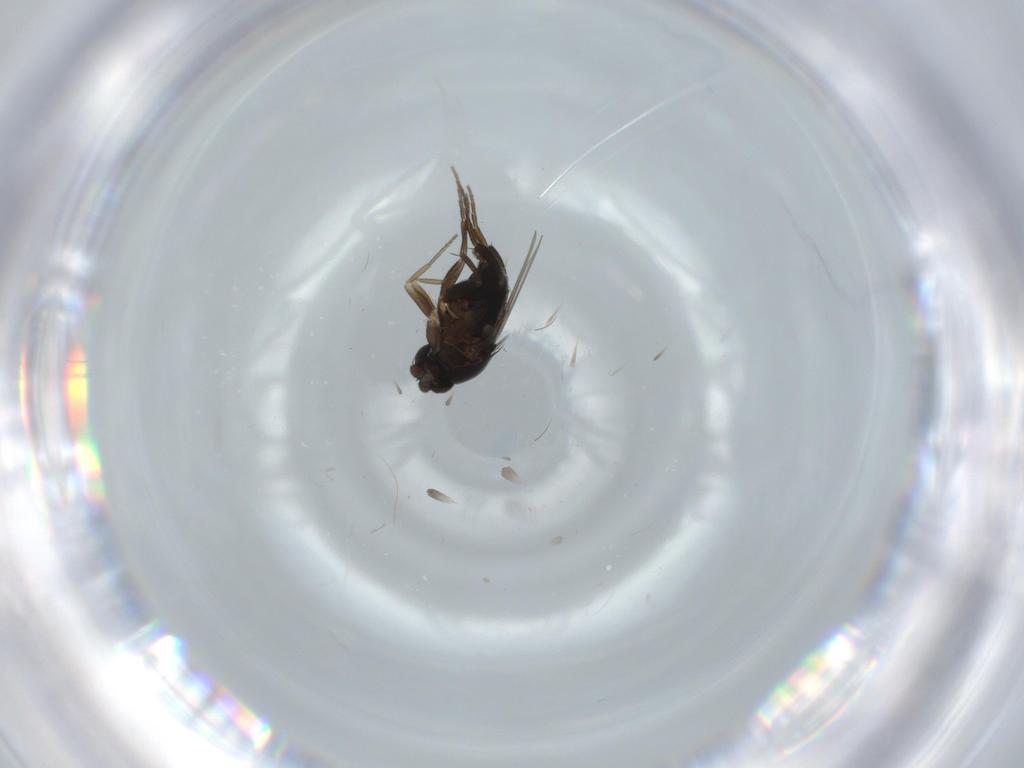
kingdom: Animalia
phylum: Arthropoda
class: Insecta
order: Diptera
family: Phoridae
